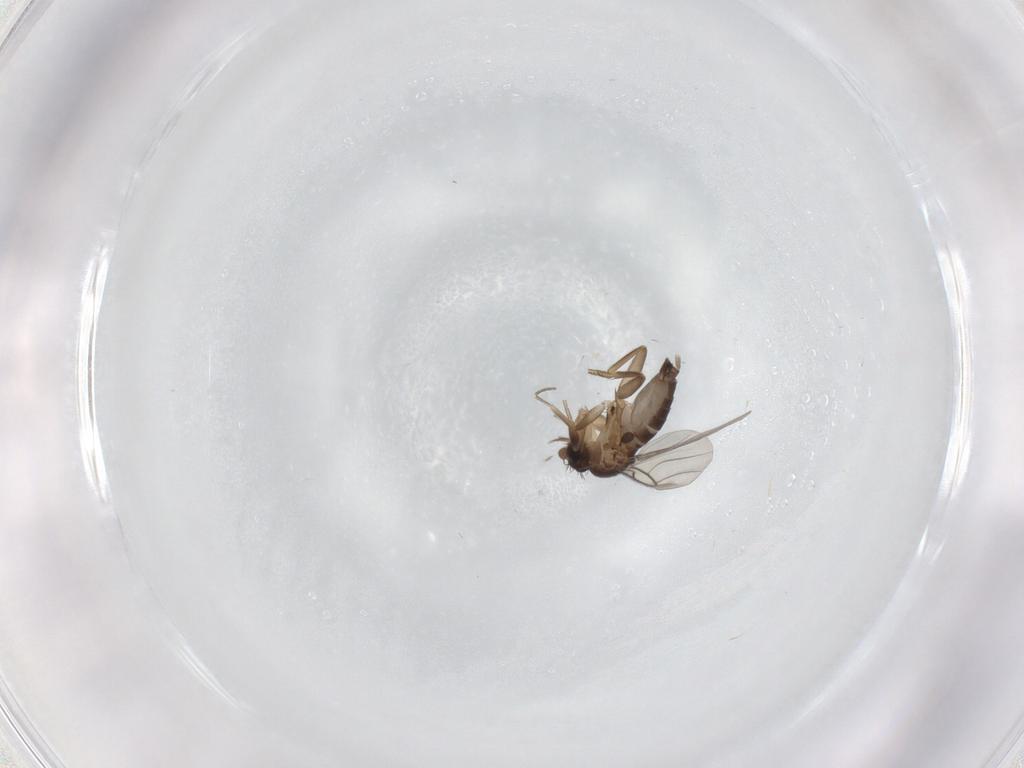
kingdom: Animalia
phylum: Arthropoda
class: Insecta
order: Diptera
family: Phoridae
